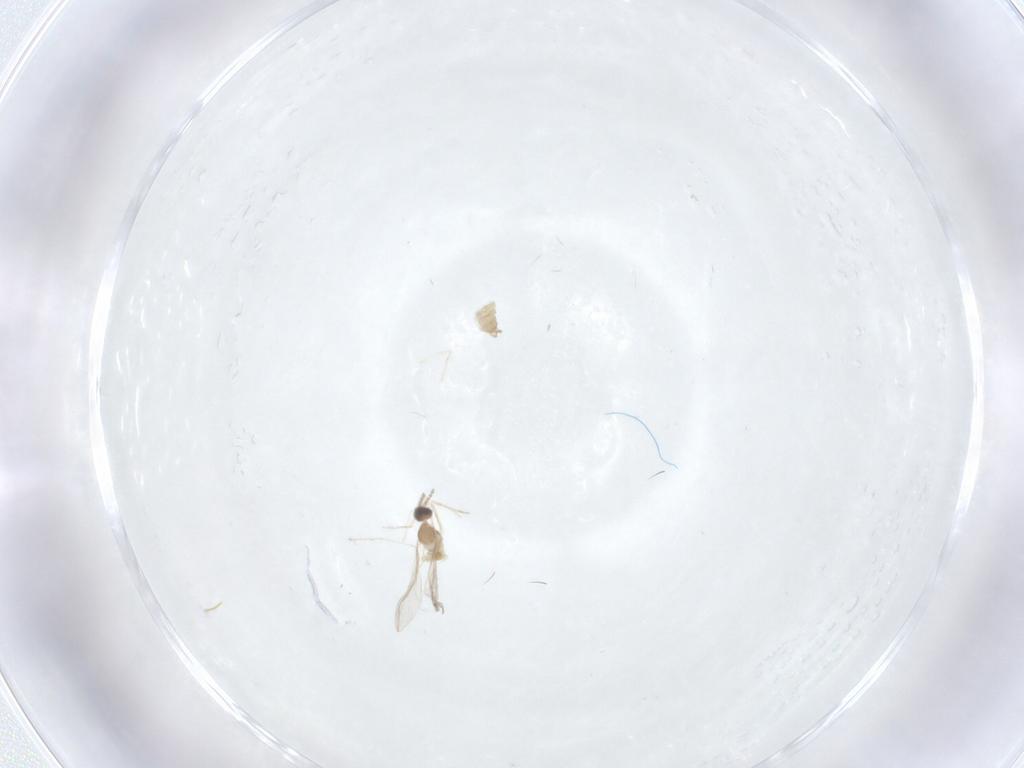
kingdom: Animalia
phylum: Arthropoda
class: Insecta
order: Diptera
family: Cecidomyiidae
